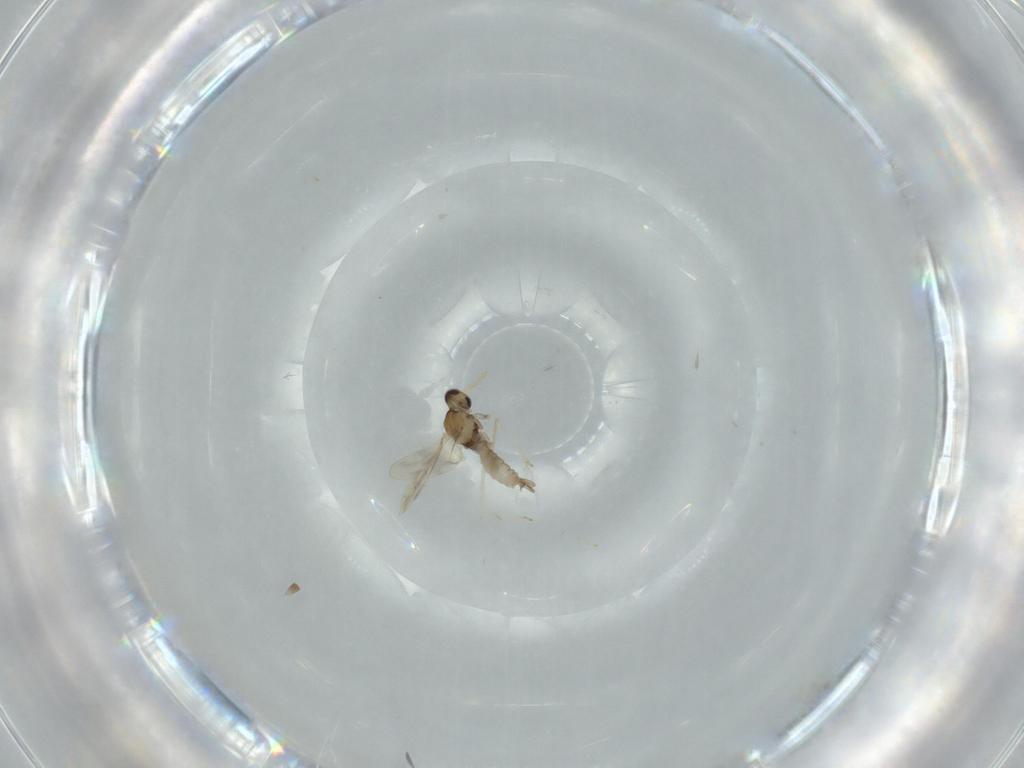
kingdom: Animalia
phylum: Arthropoda
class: Insecta
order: Diptera
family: Cecidomyiidae
